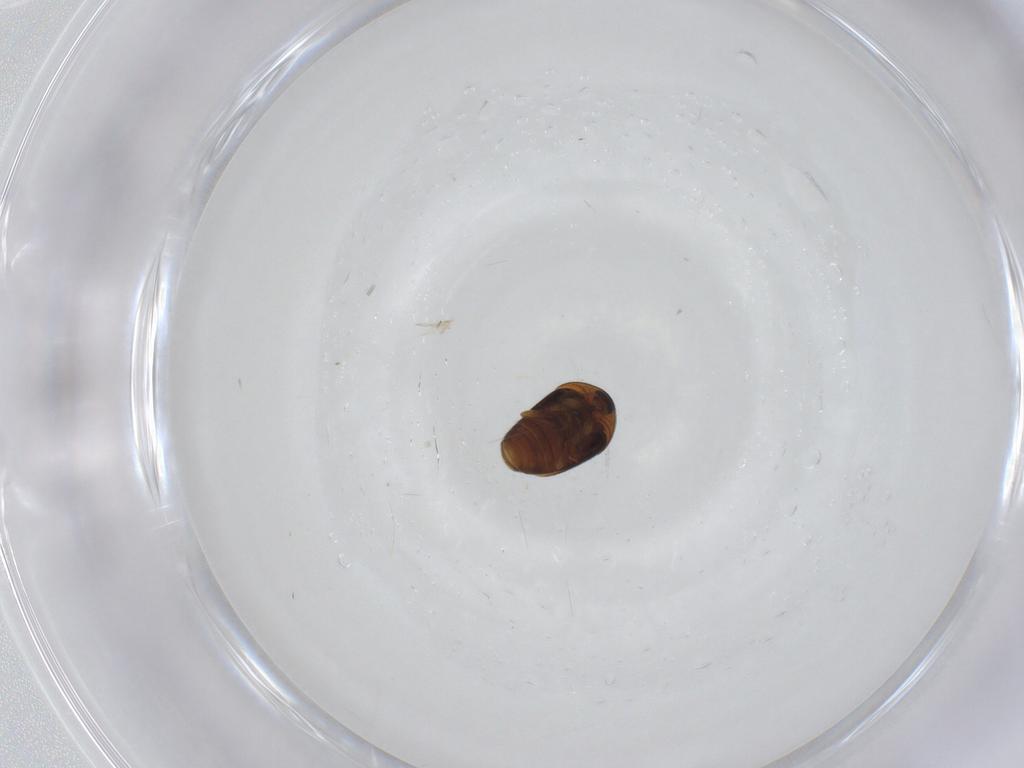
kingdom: Animalia
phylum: Arthropoda
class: Insecta
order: Coleoptera
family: Corylophidae
